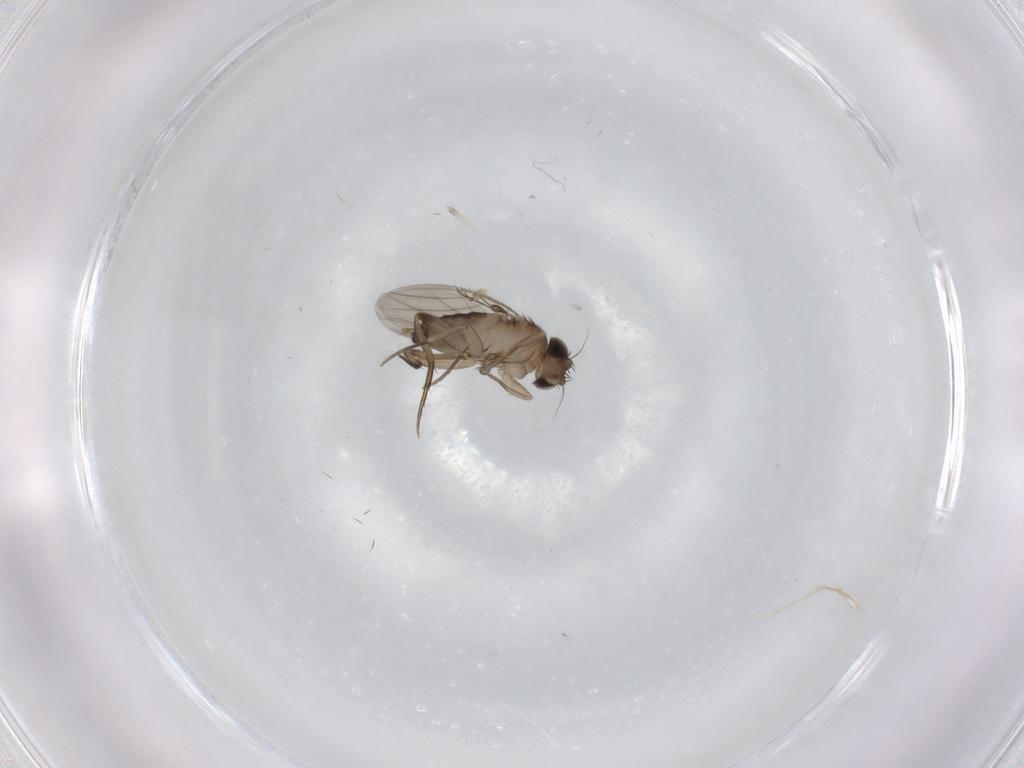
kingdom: Animalia
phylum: Arthropoda
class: Insecta
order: Diptera
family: Phoridae
